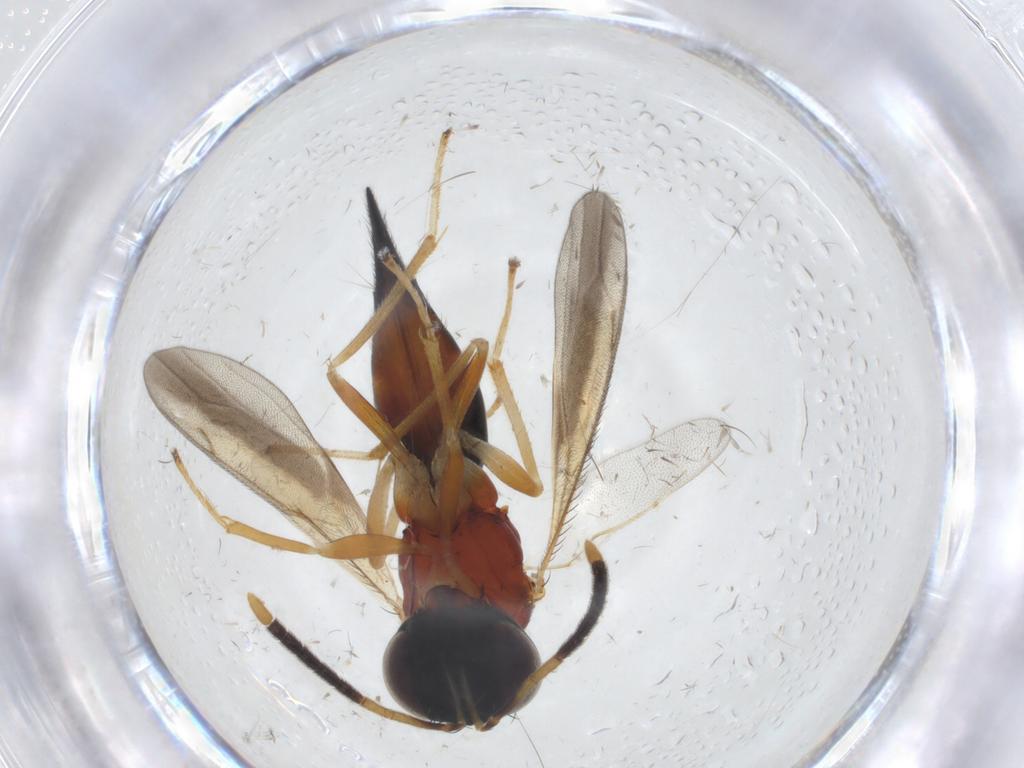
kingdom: Animalia
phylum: Arthropoda
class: Insecta
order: Hymenoptera
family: Diparidae
